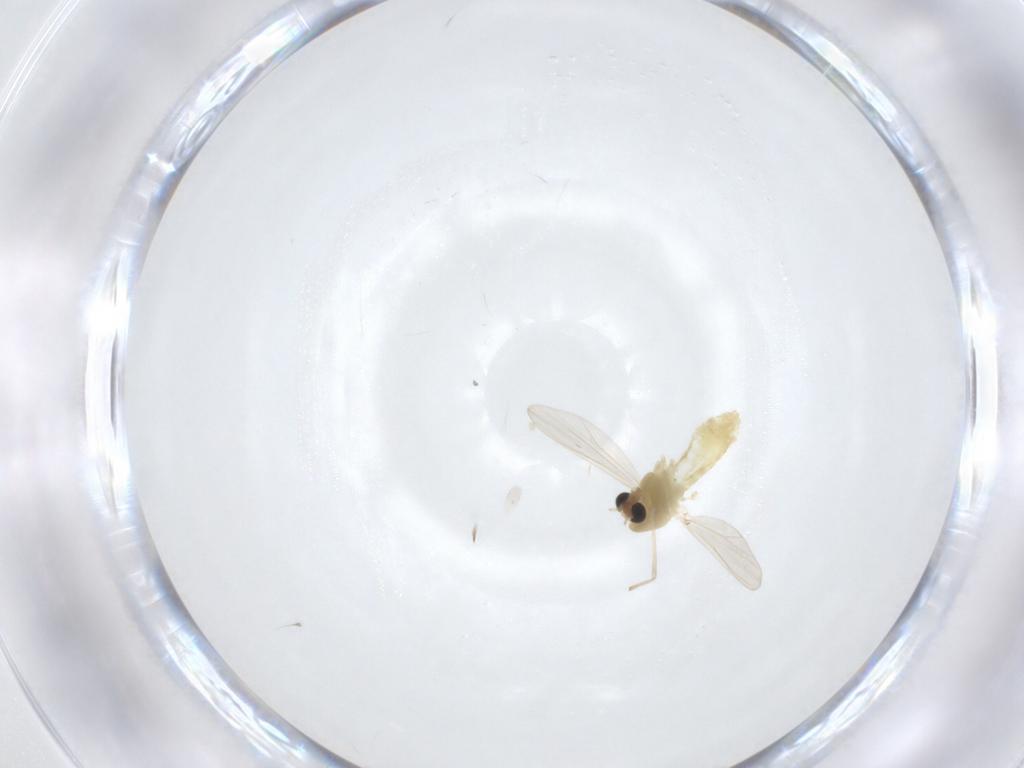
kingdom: Animalia
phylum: Arthropoda
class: Insecta
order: Diptera
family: Chironomidae
